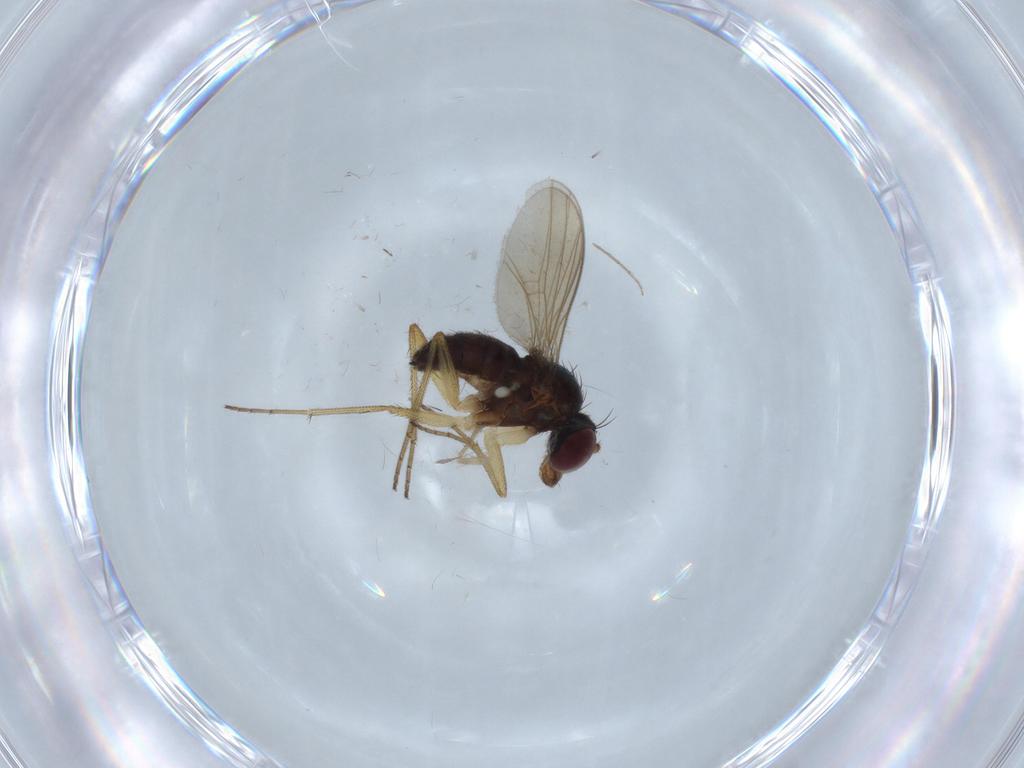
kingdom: Animalia
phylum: Arthropoda
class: Insecta
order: Diptera
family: Dolichopodidae
